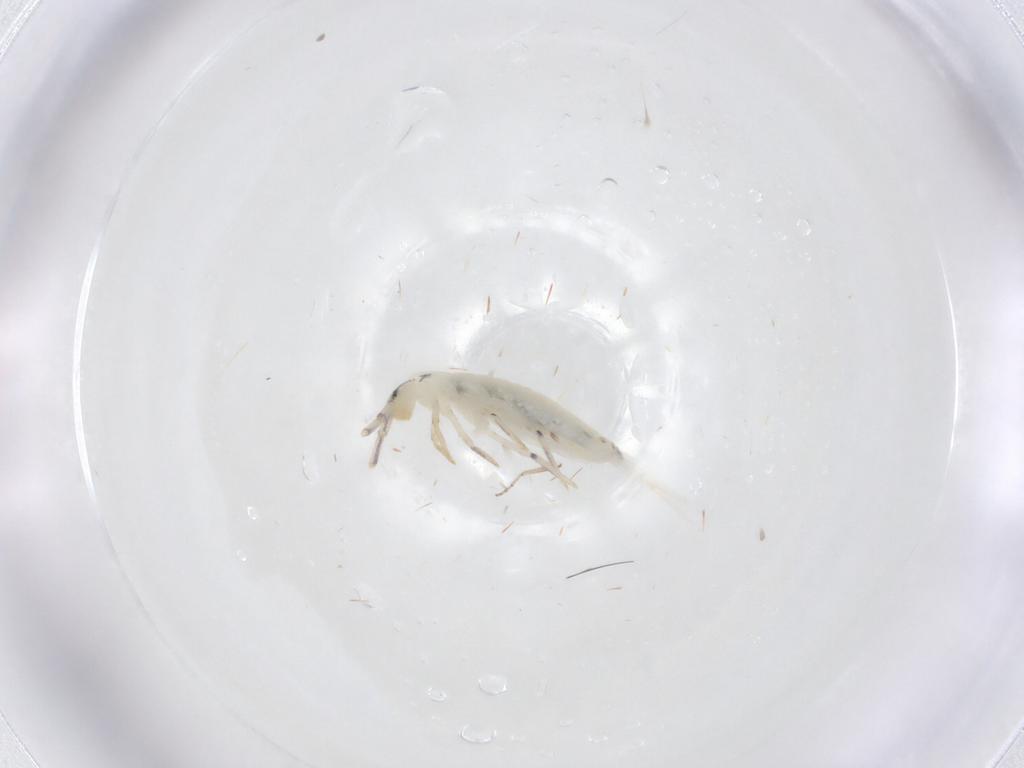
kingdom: Animalia
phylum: Arthropoda
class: Collembola
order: Entomobryomorpha
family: Entomobryidae
